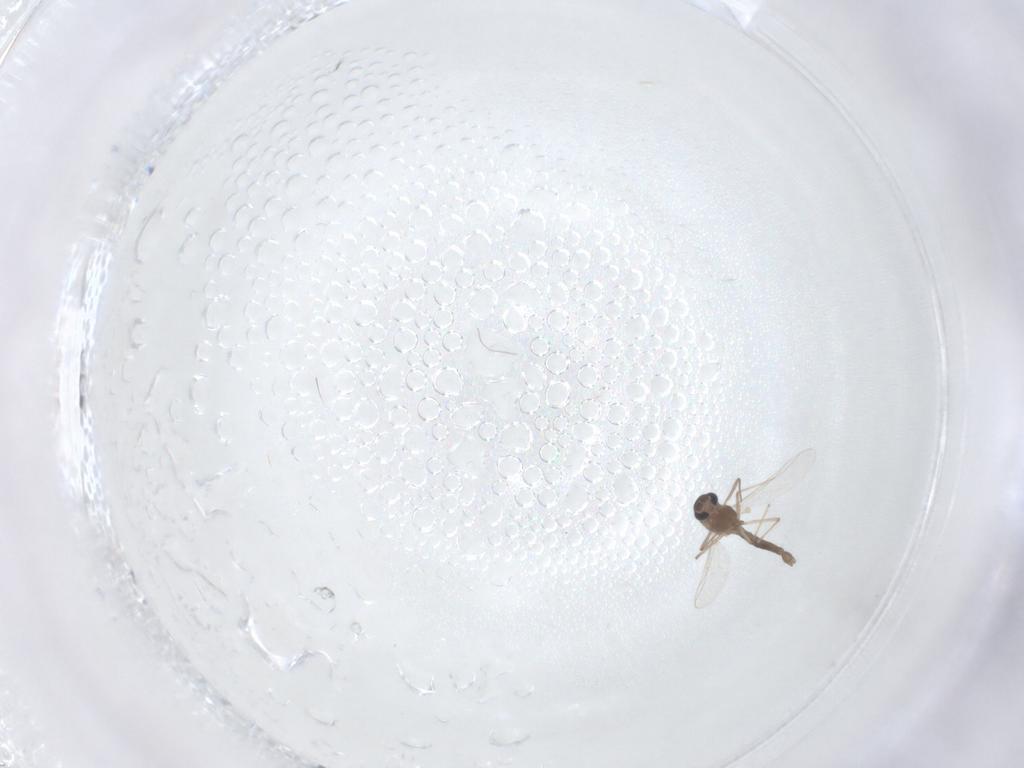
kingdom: Animalia
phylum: Arthropoda
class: Insecta
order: Diptera
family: Chironomidae
